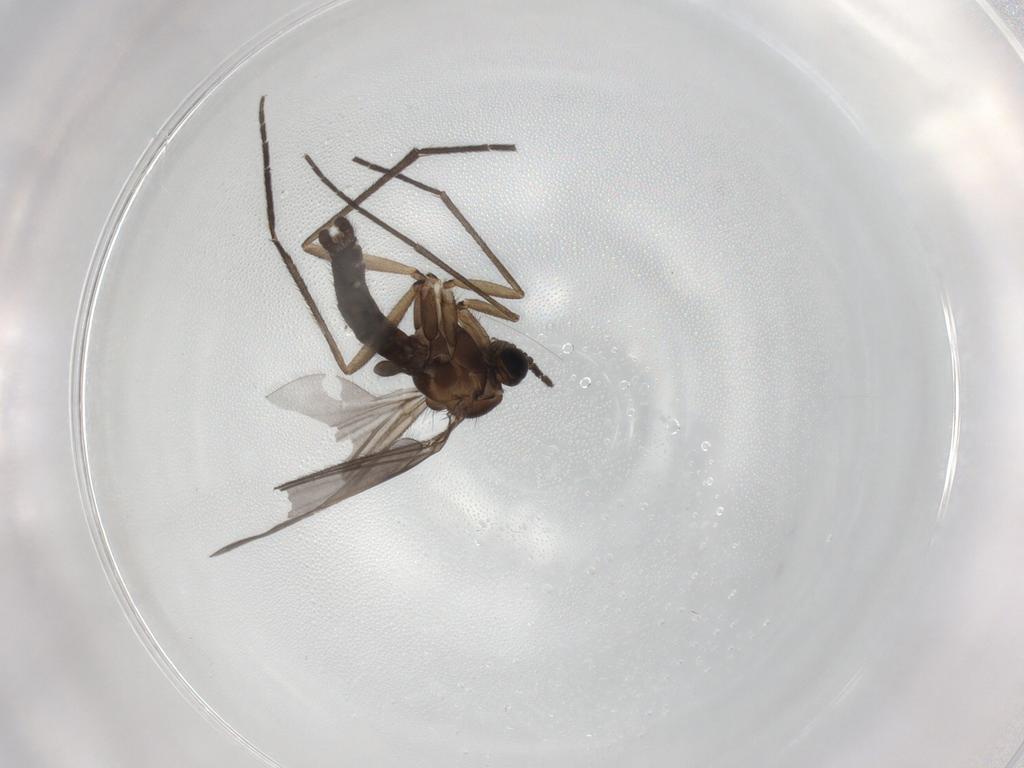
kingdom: Animalia
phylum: Arthropoda
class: Insecta
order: Diptera
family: Sciaridae
